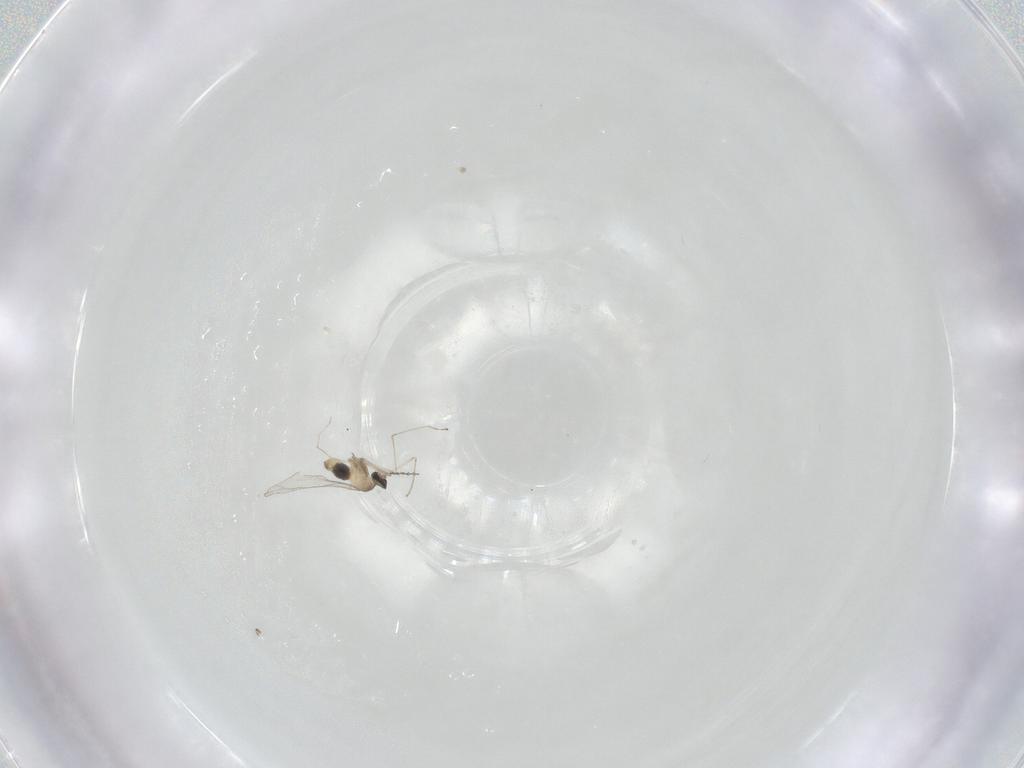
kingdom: Animalia
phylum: Arthropoda
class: Insecta
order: Diptera
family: Cecidomyiidae
